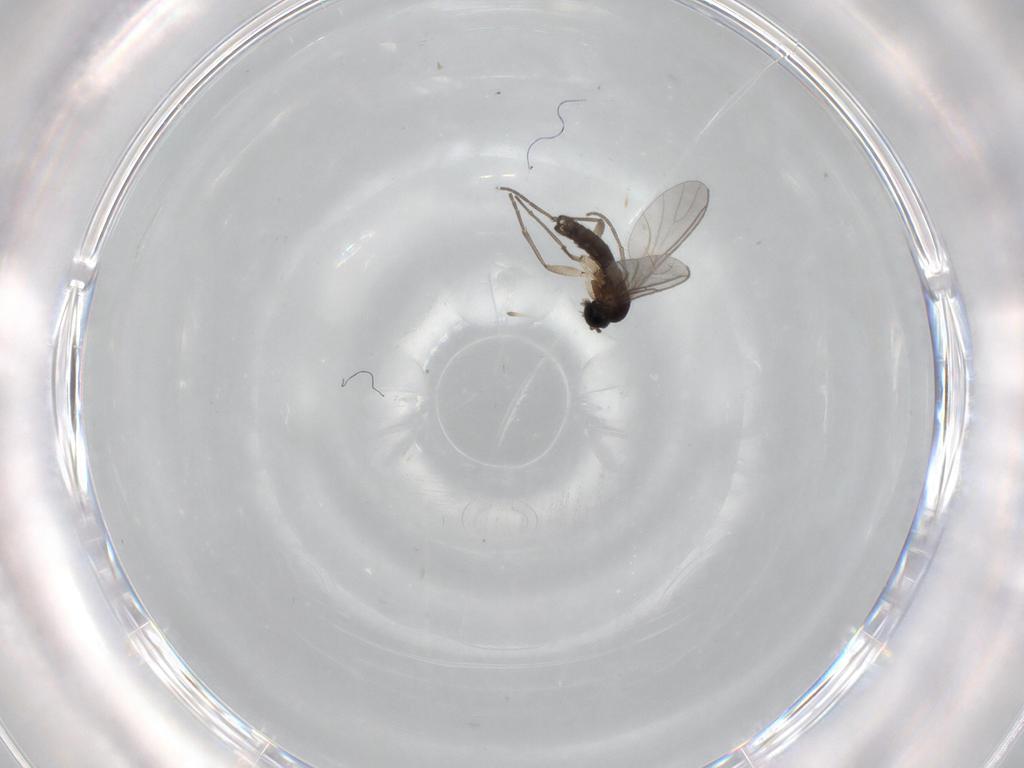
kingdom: Animalia
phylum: Arthropoda
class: Insecta
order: Diptera
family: Sciaridae
